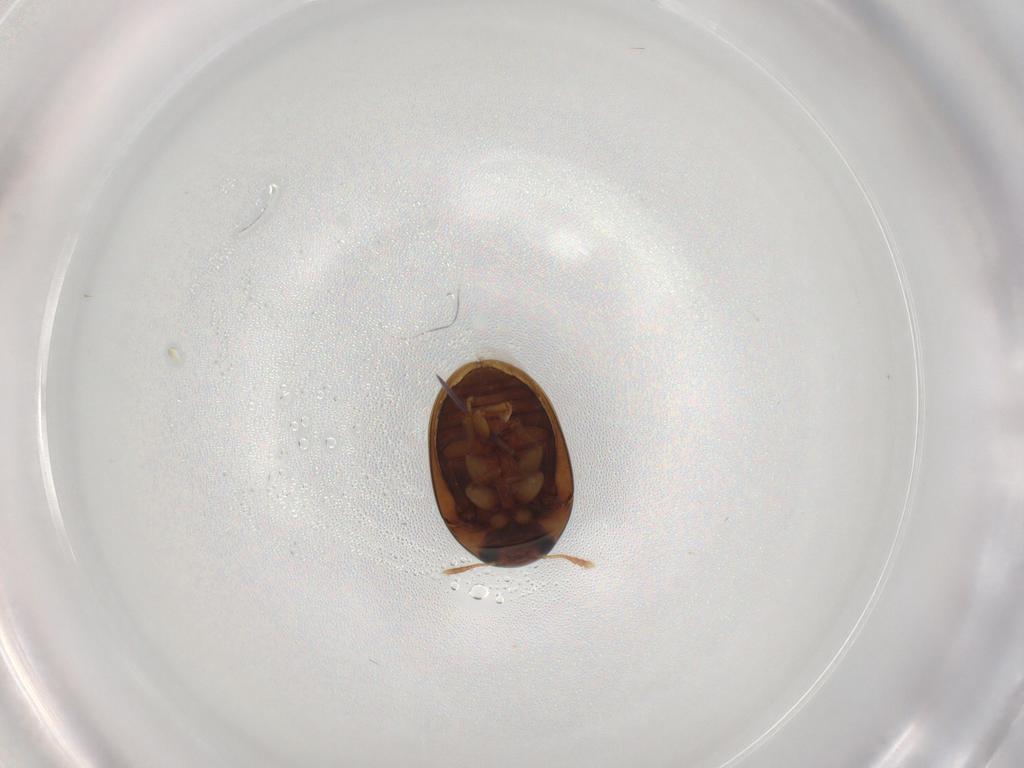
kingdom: Animalia
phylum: Arthropoda
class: Insecta
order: Coleoptera
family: Phalacridae
